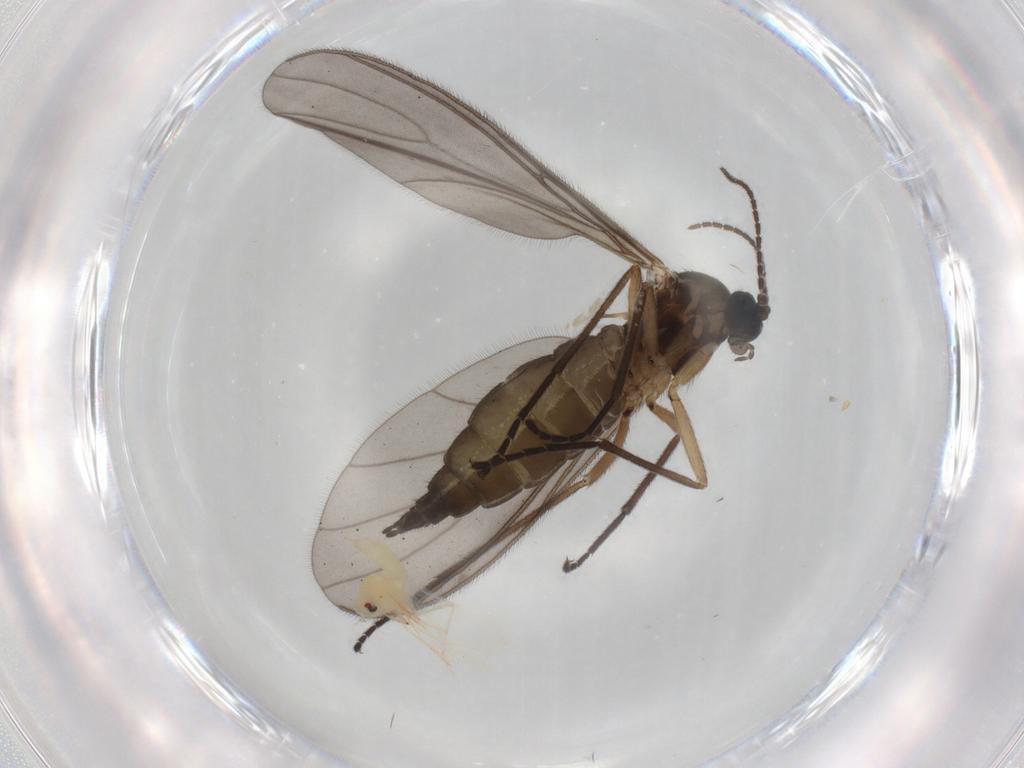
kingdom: Animalia
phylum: Arthropoda
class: Insecta
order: Diptera
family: Sciaridae
